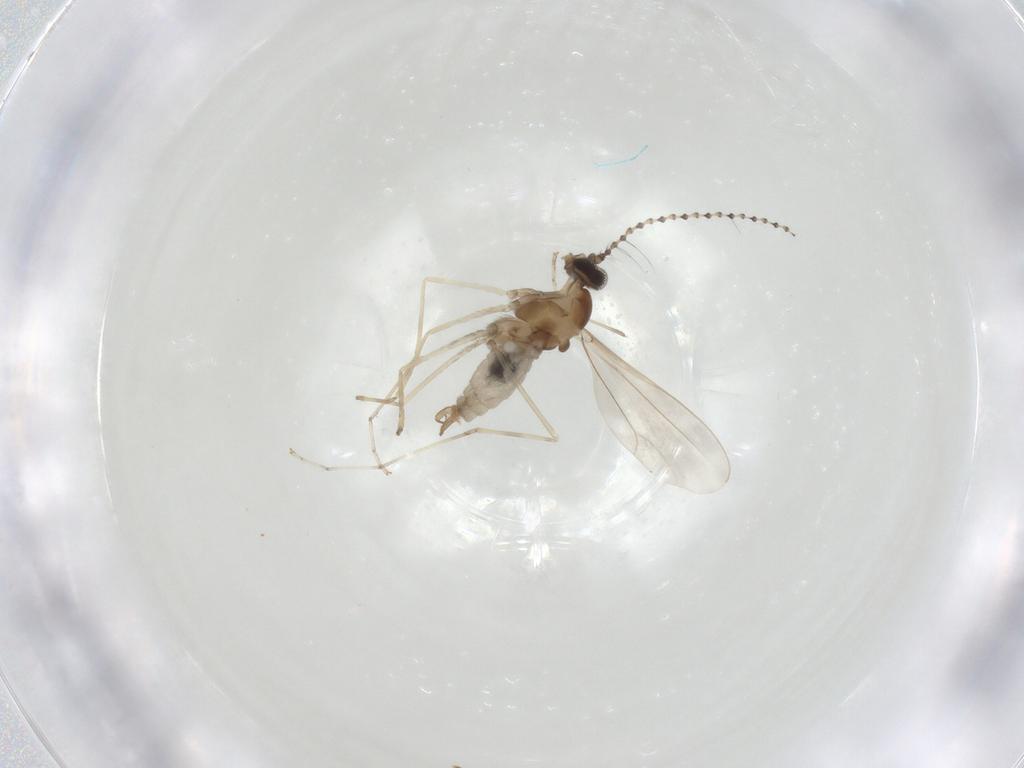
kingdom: Animalia
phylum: Arthropoda
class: Insecta
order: Diptera
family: Cecidomyiidae
